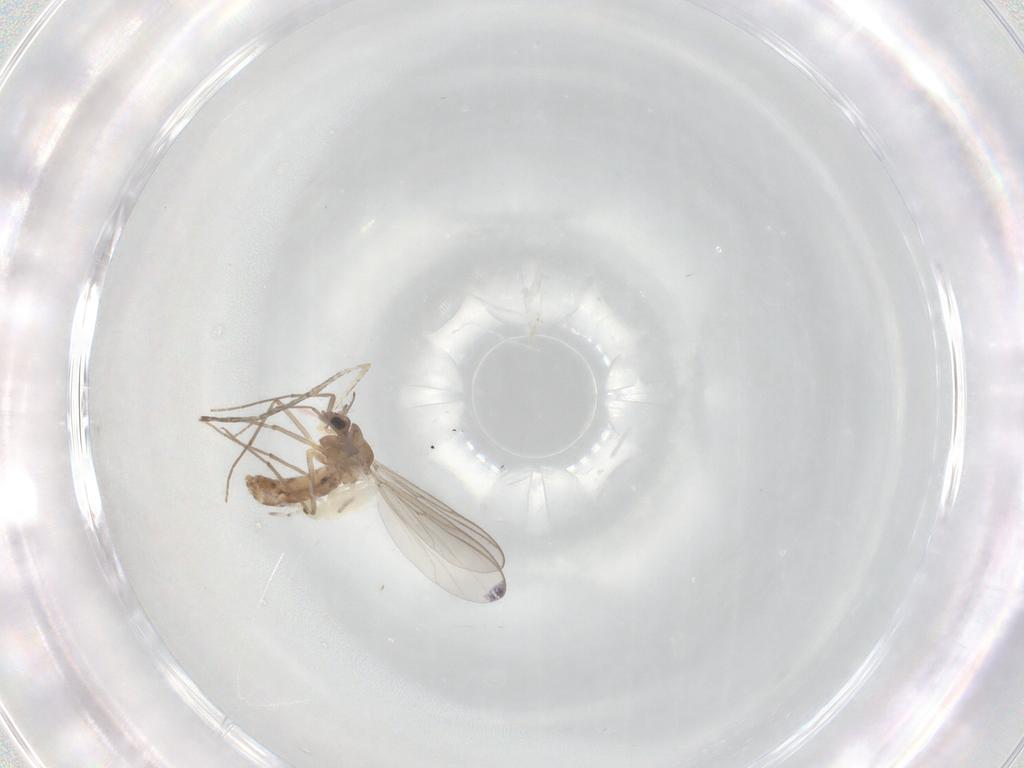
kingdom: Animalia
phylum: Arthropoda
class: Insecta
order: Diptera
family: Chironomidae
